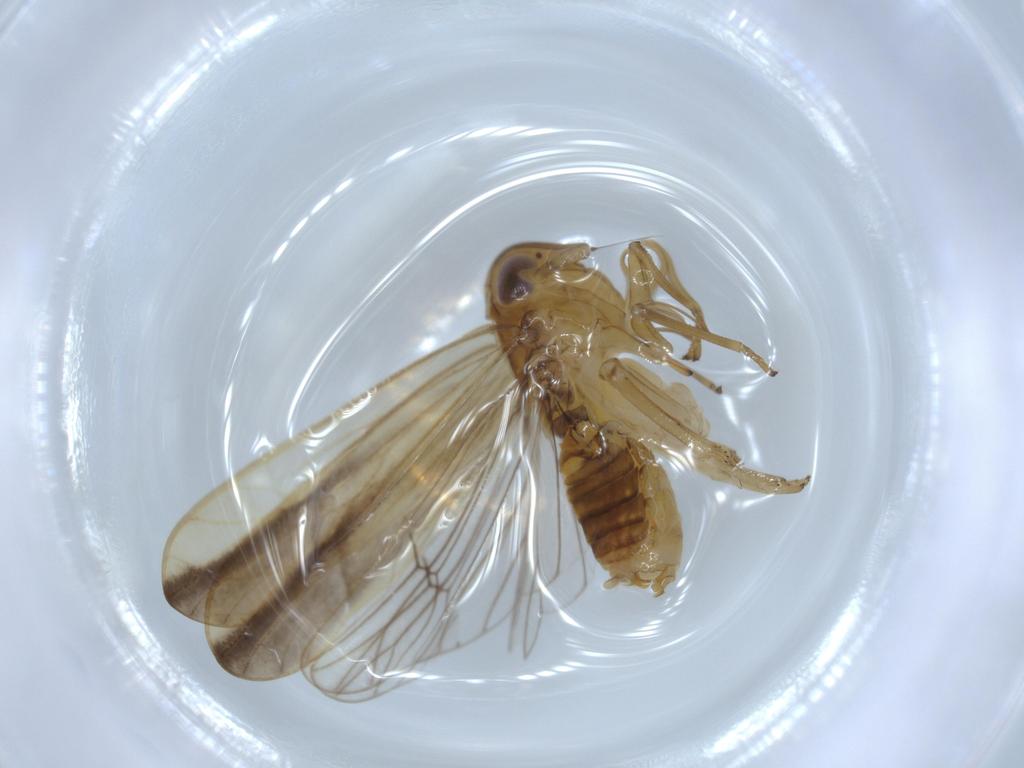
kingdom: Animalia
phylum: Arthropoda
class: Insecta
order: Hemiptera
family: Delphacidae
